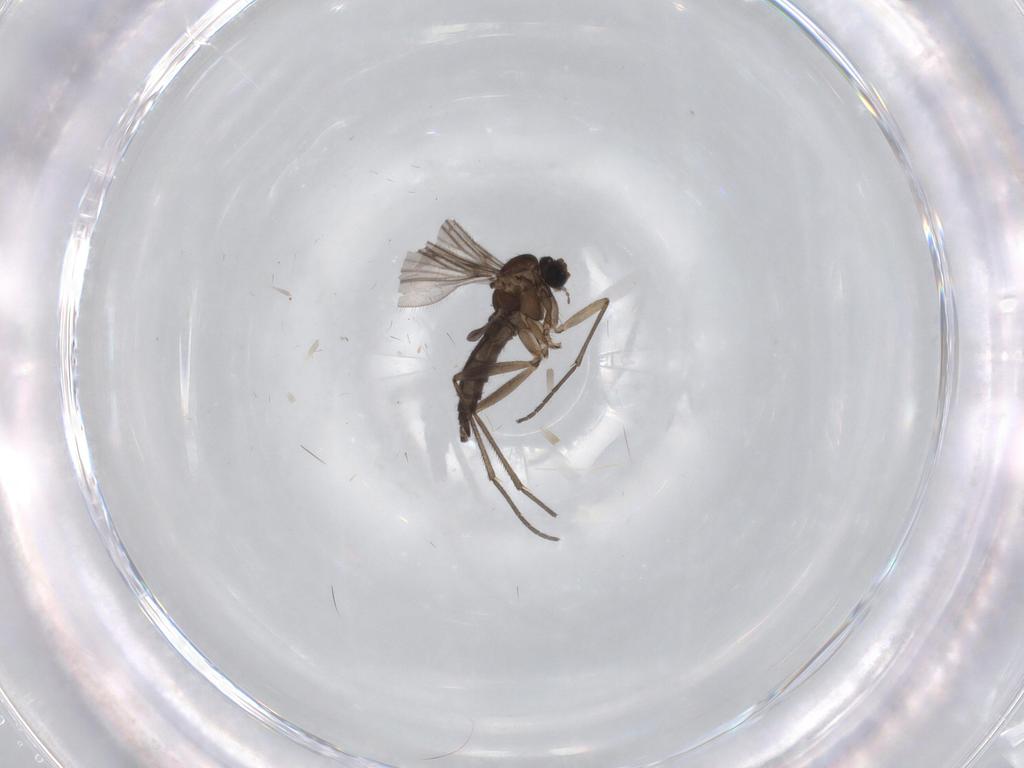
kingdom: Animalia
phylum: Arthropoda
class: Insecta
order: Diptera
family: Sciaridae
